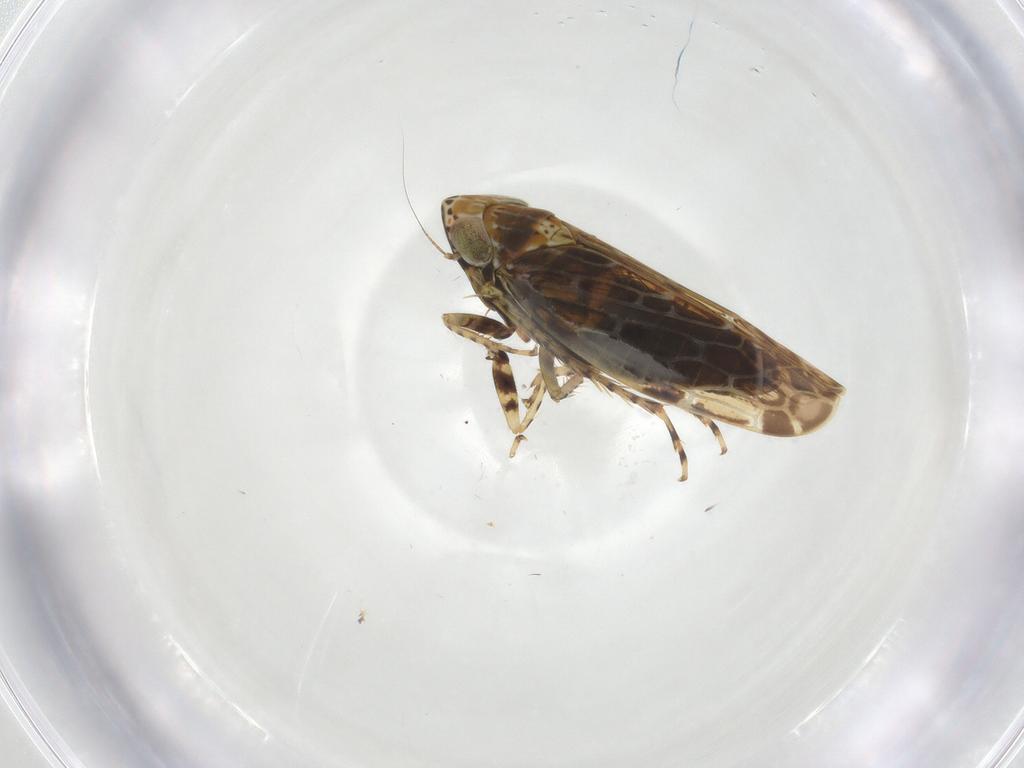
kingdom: Animalia
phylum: Arthropoda
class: Insecta
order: Hemiptera
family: Cicadellidae
